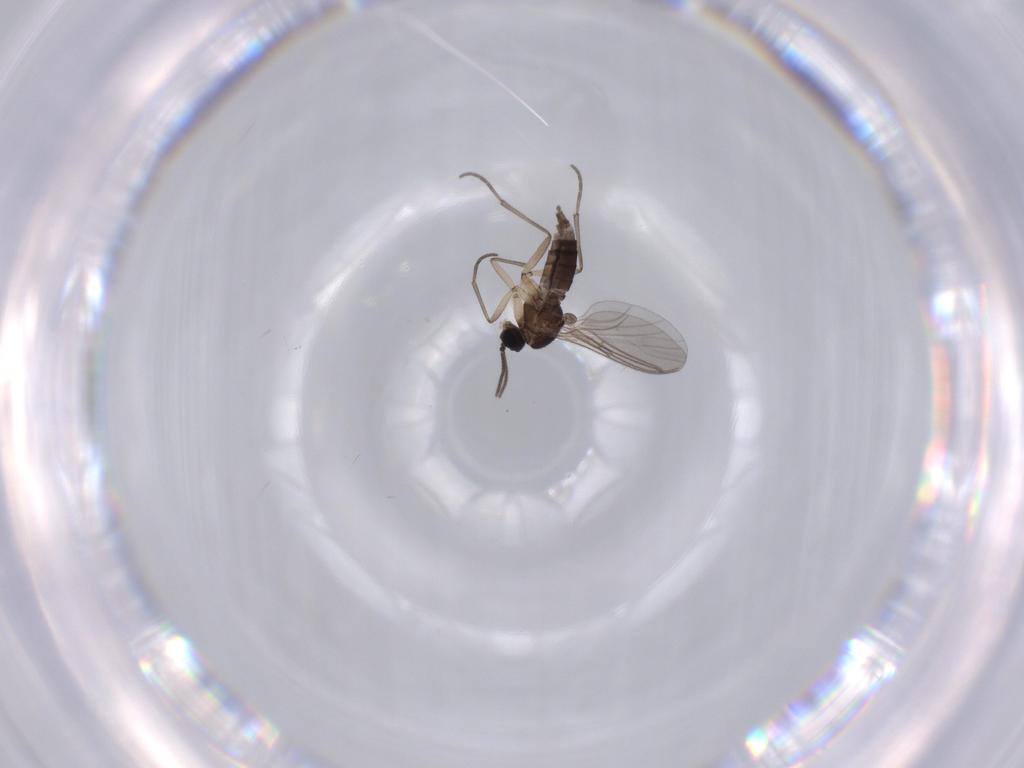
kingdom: Animalia
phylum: Arthropoda
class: Insecta
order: Diptera
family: Sciaridae
